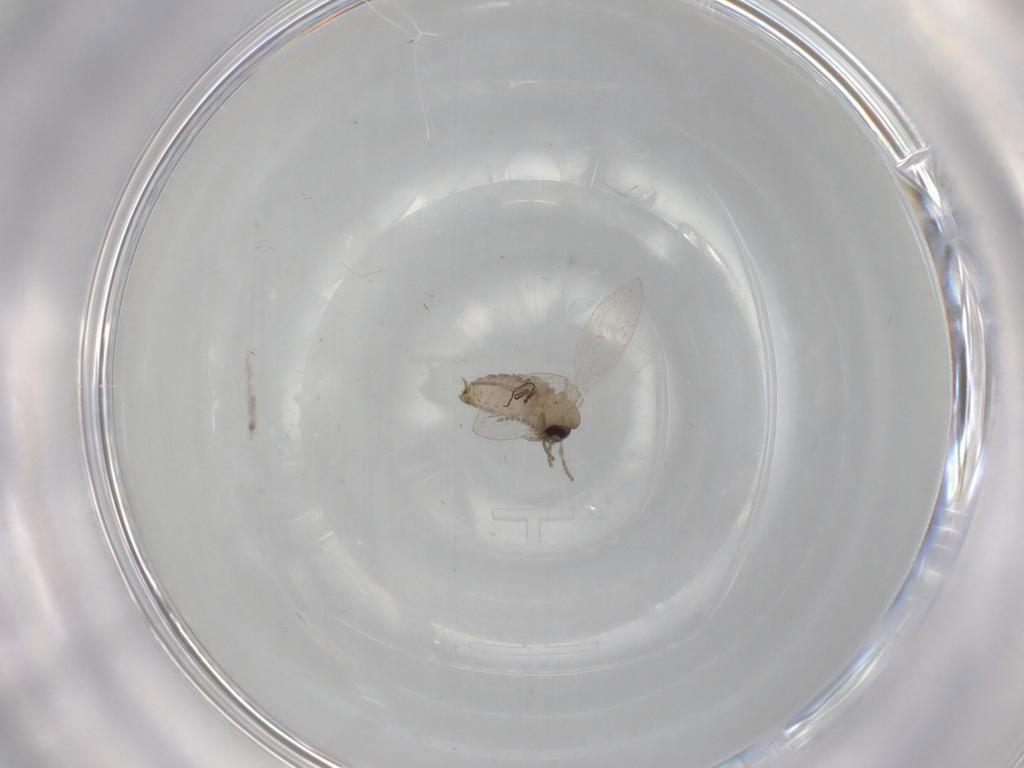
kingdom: Animalia
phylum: Arthropoda
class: Insecta
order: Diptera
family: Psychodidae
